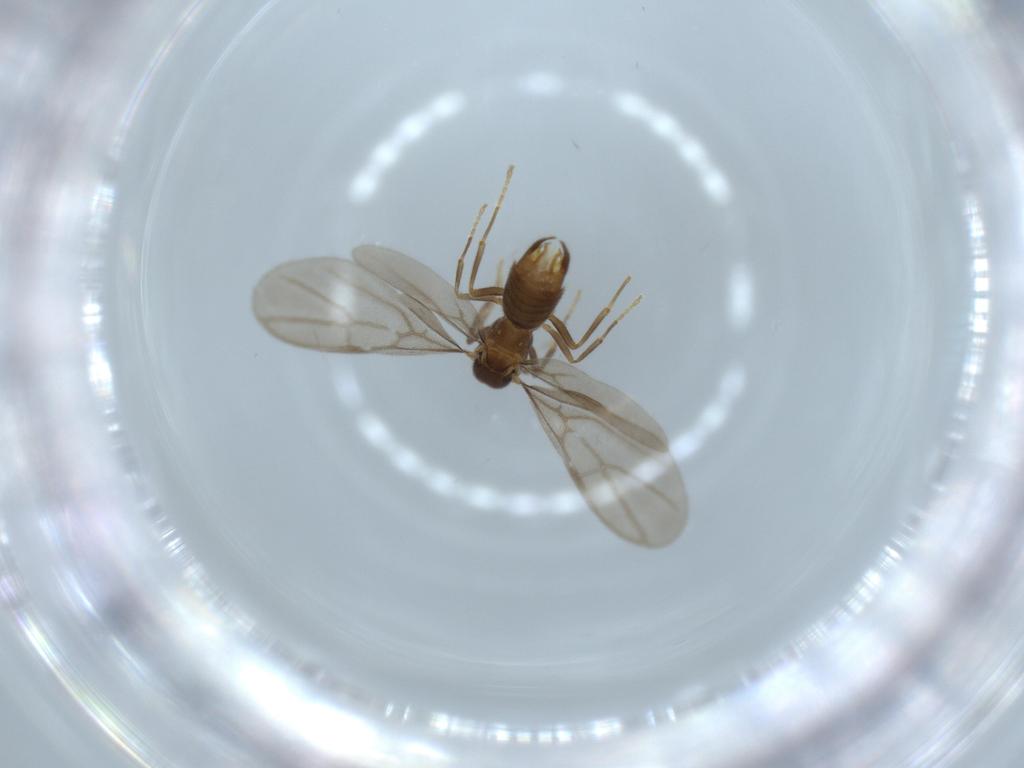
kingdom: Animalia
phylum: Arthropoda
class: Insecta
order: Hymenoptera
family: Formicidae
